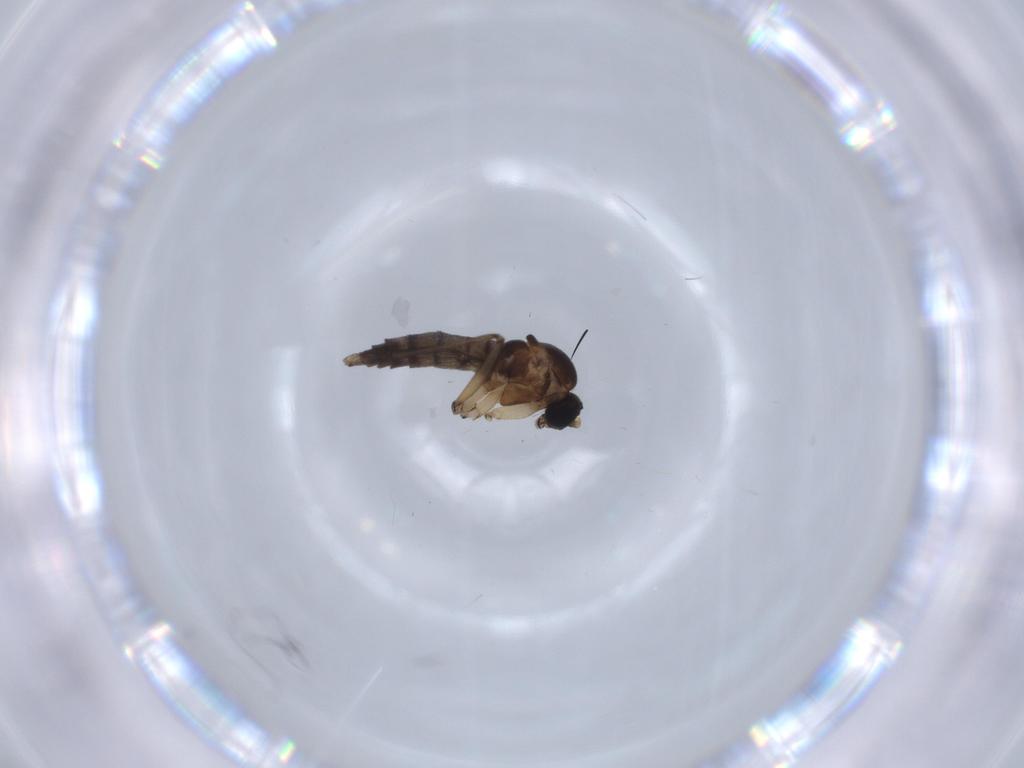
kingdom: Animalia
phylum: Arthropoda
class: Insecta
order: Diptera
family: Sciaridae
